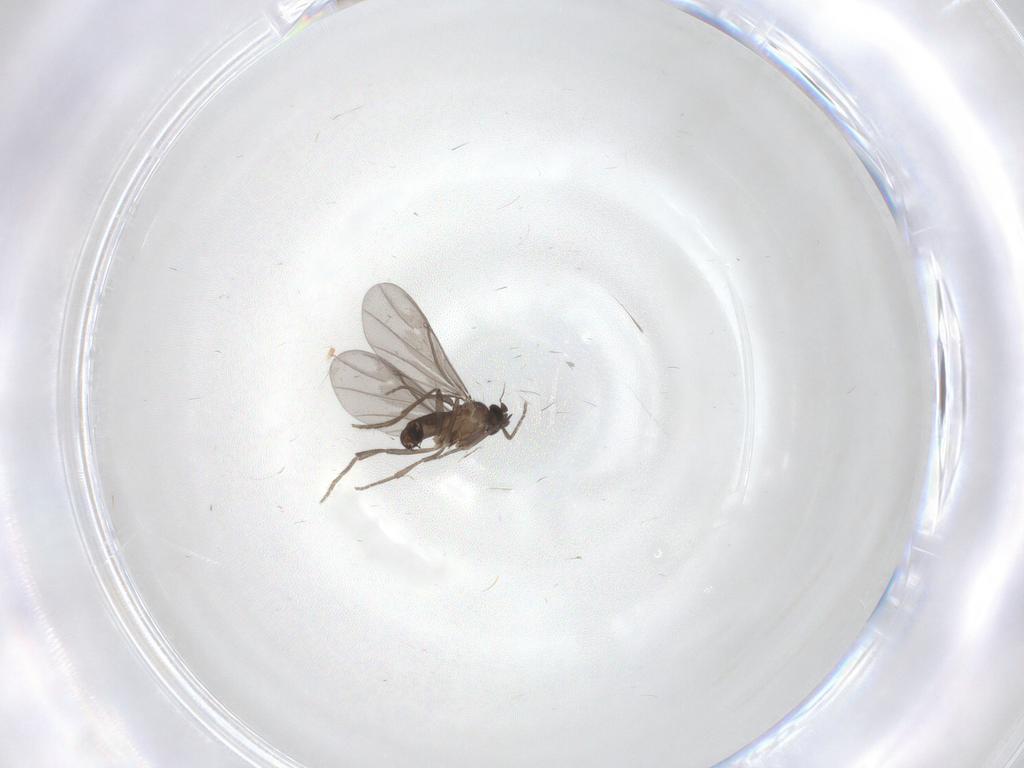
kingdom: Animalia
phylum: Arthropoda
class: Insecta
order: Diptera
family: Phoridae
